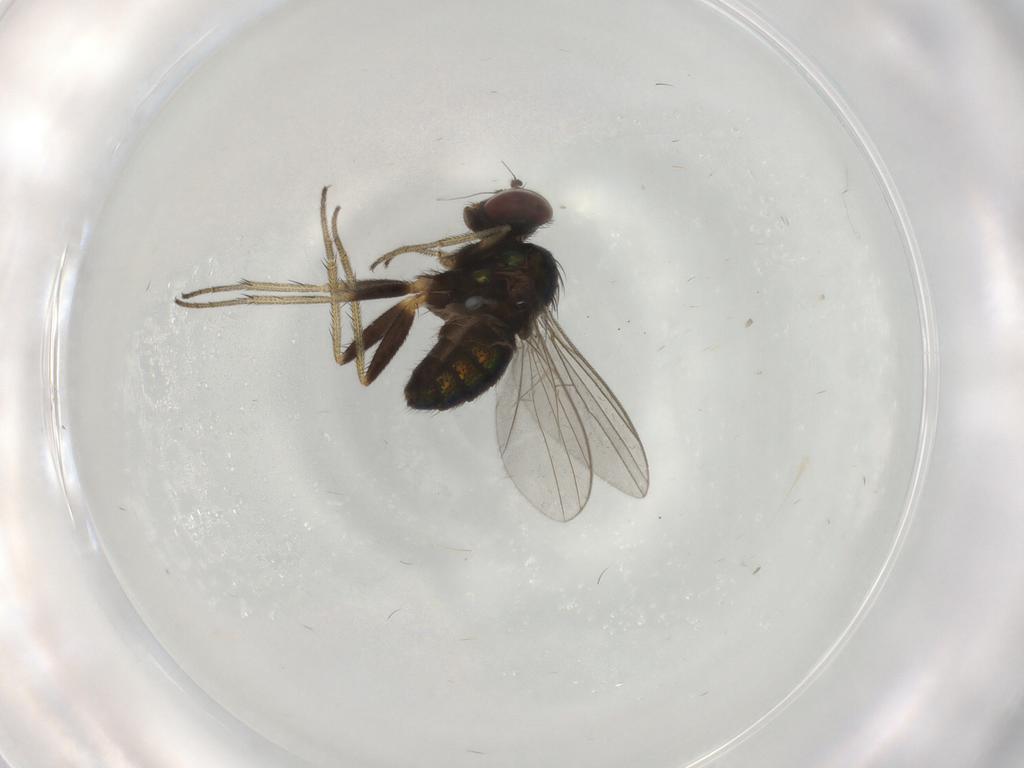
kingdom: Animalia
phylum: Arthropoda
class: Insecta
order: Diptera
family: Dolichopodidae
